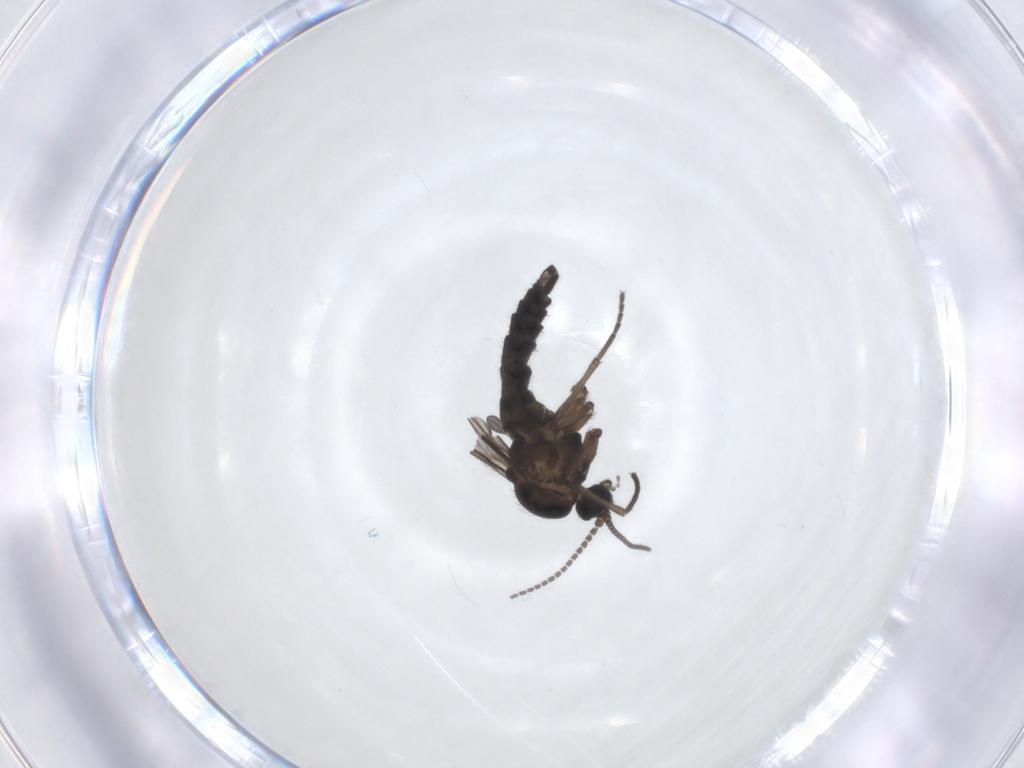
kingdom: Animalia
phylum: Arthropoda
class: Insecta
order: Diptera
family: Sciaridae
